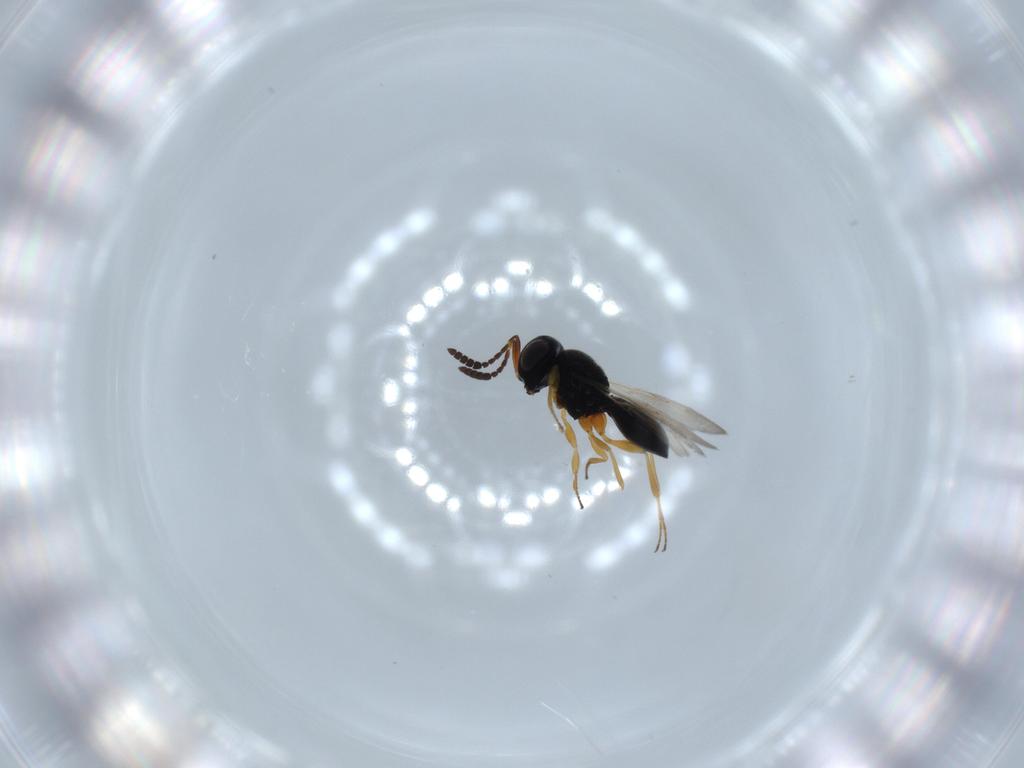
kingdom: Animalia
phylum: Arthropoda
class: Insecta
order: Hymenoptera
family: Scelionidae
